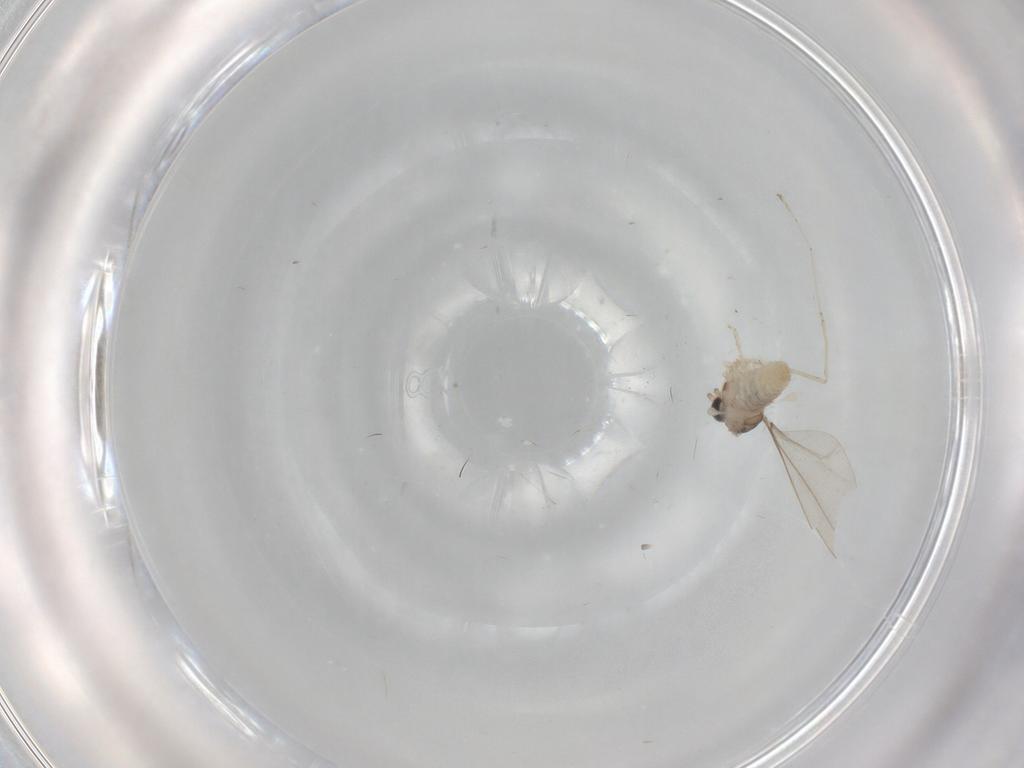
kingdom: Animalia
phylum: Arthropoda
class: Insecta
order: Diptera
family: Cecidomyiidae
